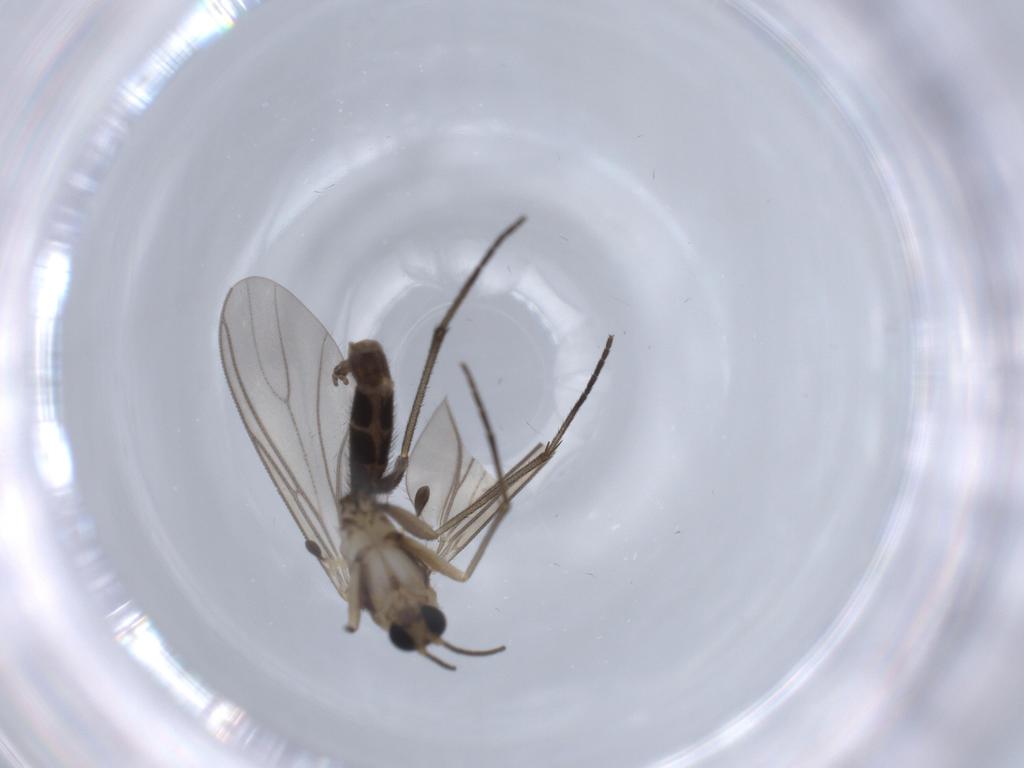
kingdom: Animalia
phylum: Arthropoda
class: Insecta
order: Diptera
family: Sciaridae
